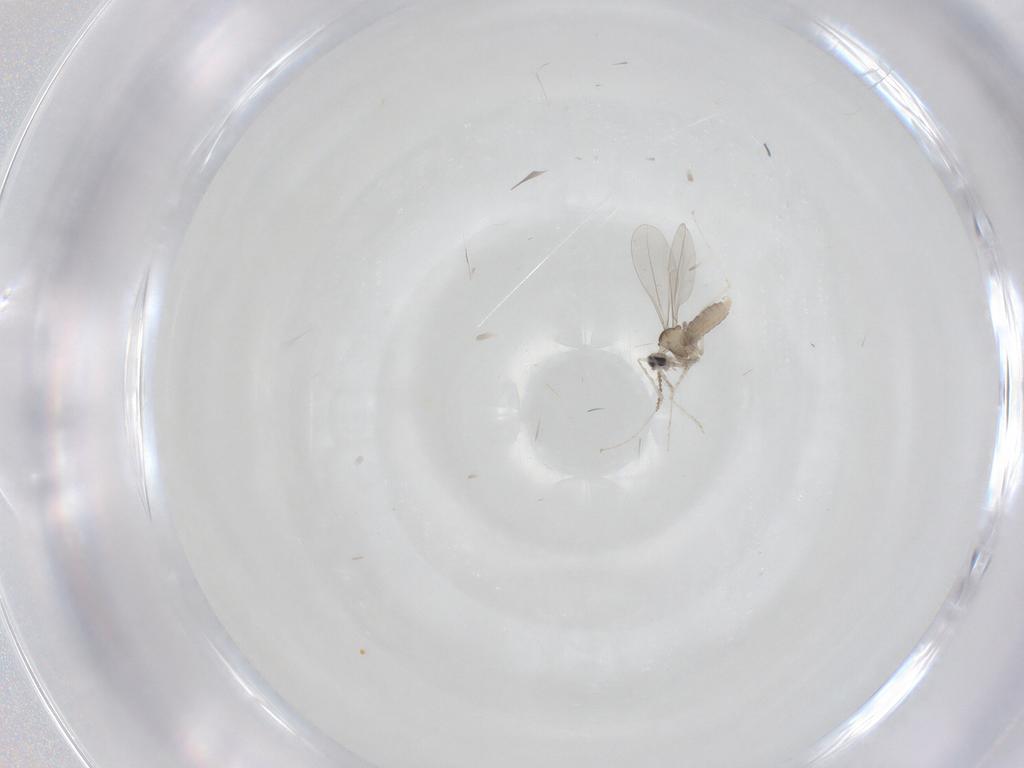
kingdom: Animalia
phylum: Arthropoda
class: Insecta
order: Diptera
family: Cecidomyiidae
